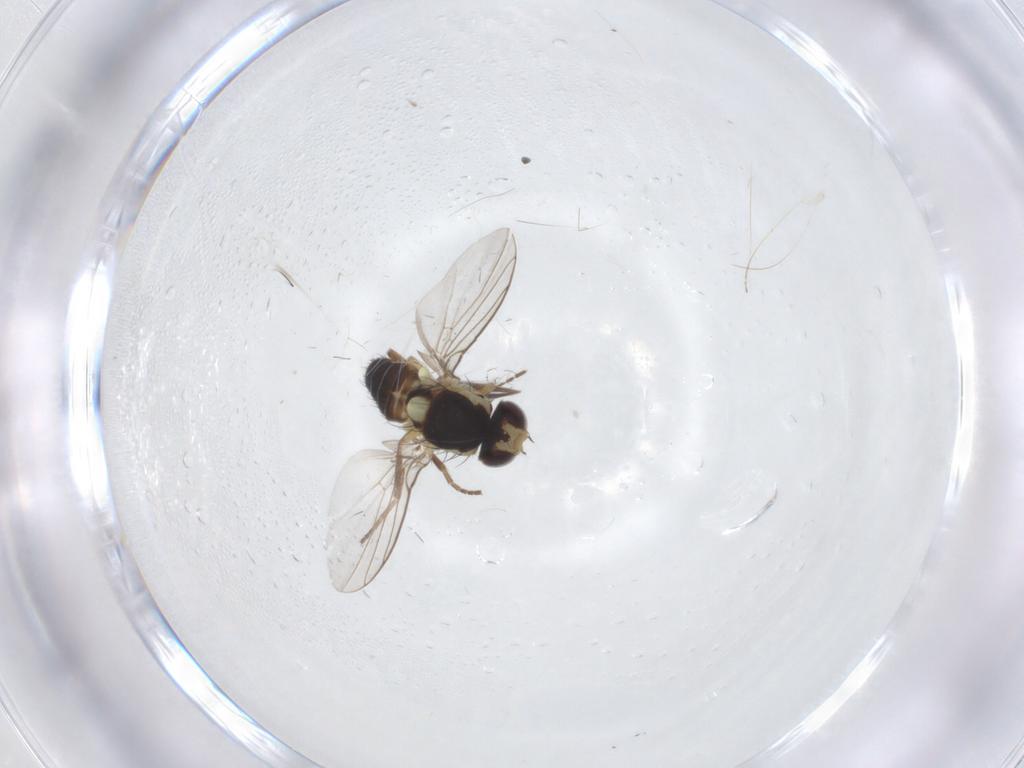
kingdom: Animalia
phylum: Arthropoda
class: Insecta
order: Diptera
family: Agromyzidae
